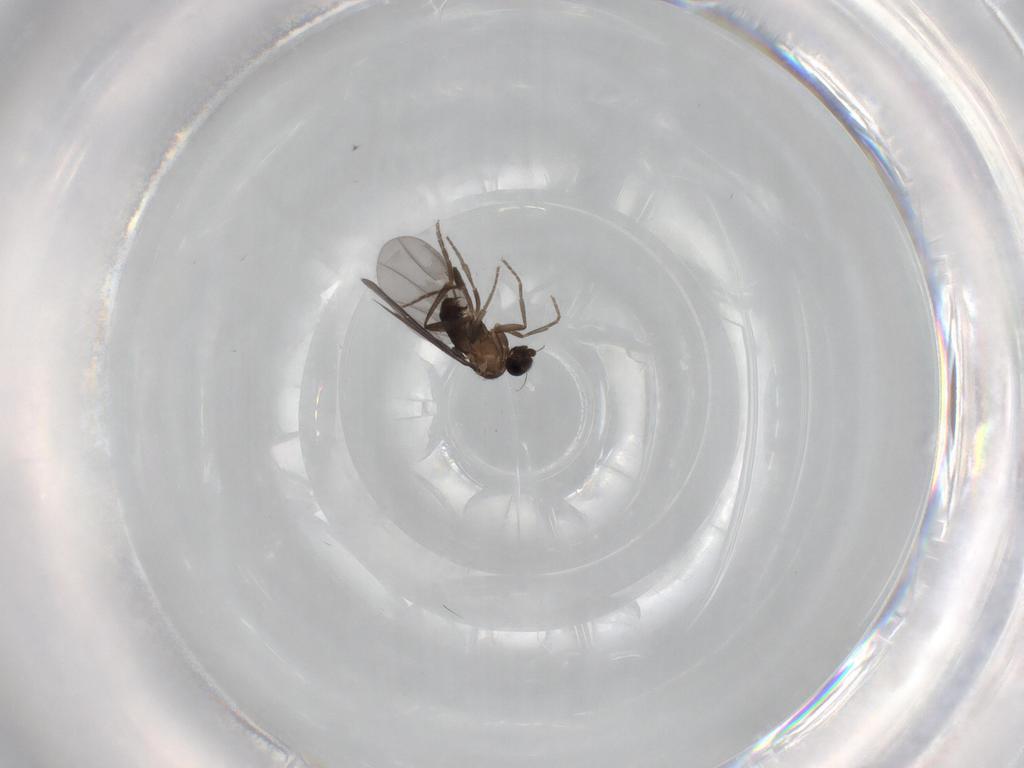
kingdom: Animalia
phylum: Arthropoda
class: Insecta
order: Diptera
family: Phoridae
